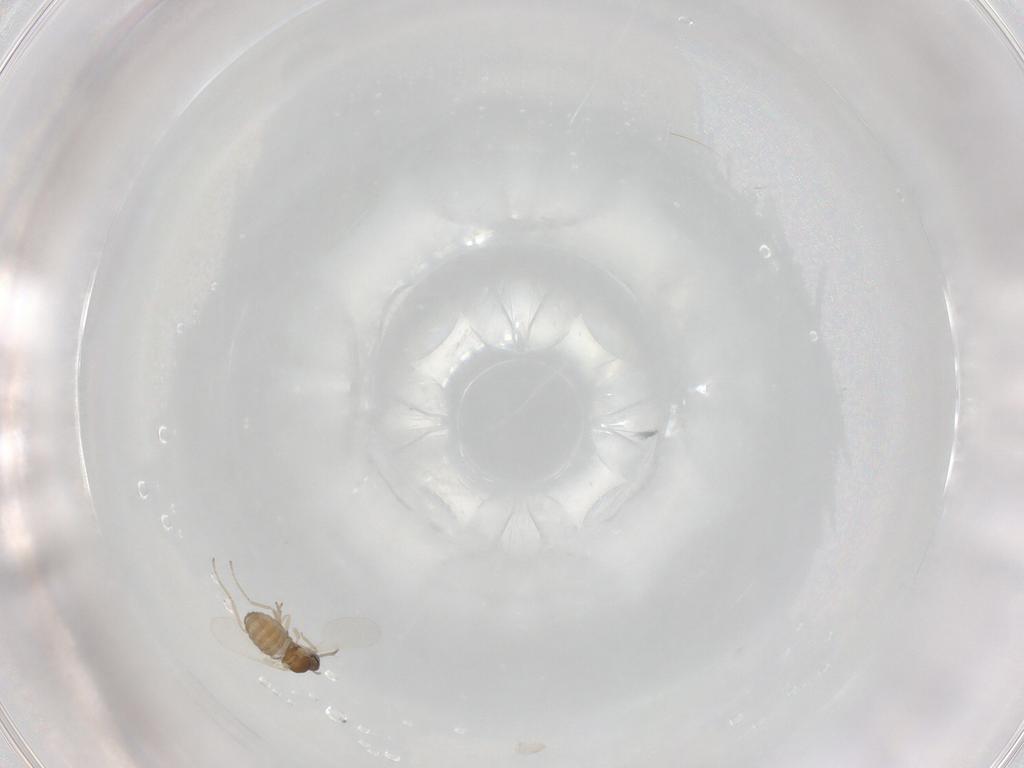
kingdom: Animalia
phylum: Arthropoda
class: Insecta
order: Diptera
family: Cecidomyiidae
